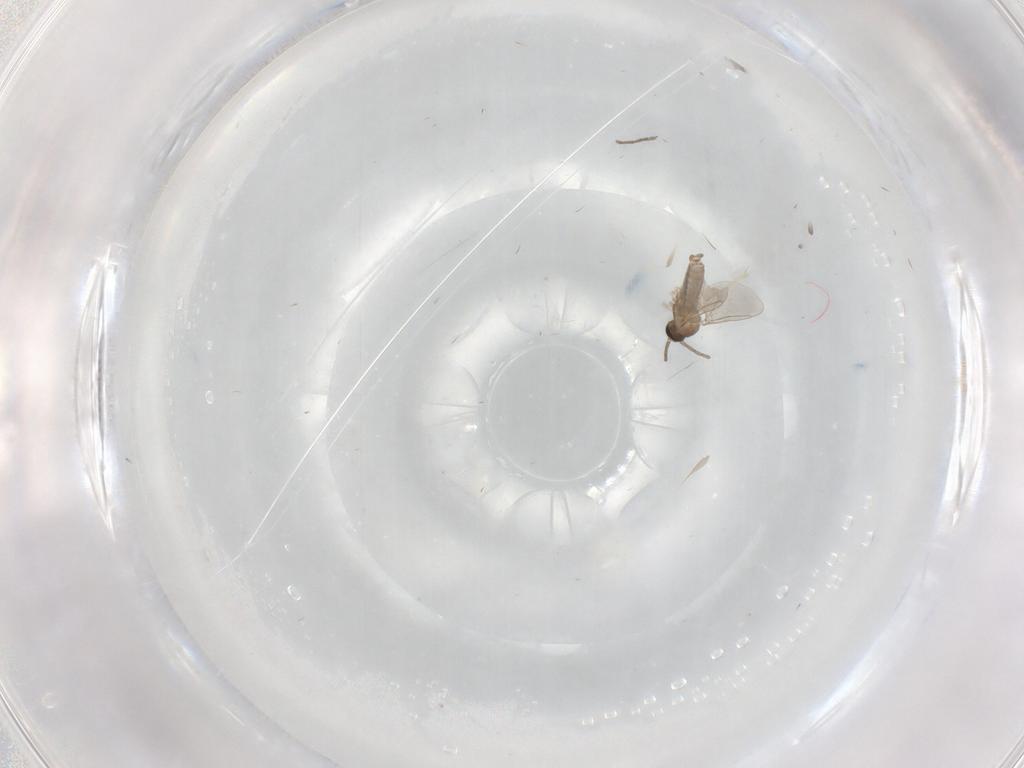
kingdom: Animalia
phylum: Arthropoda
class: Insecta
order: Diptera
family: Cecidomyiidae
